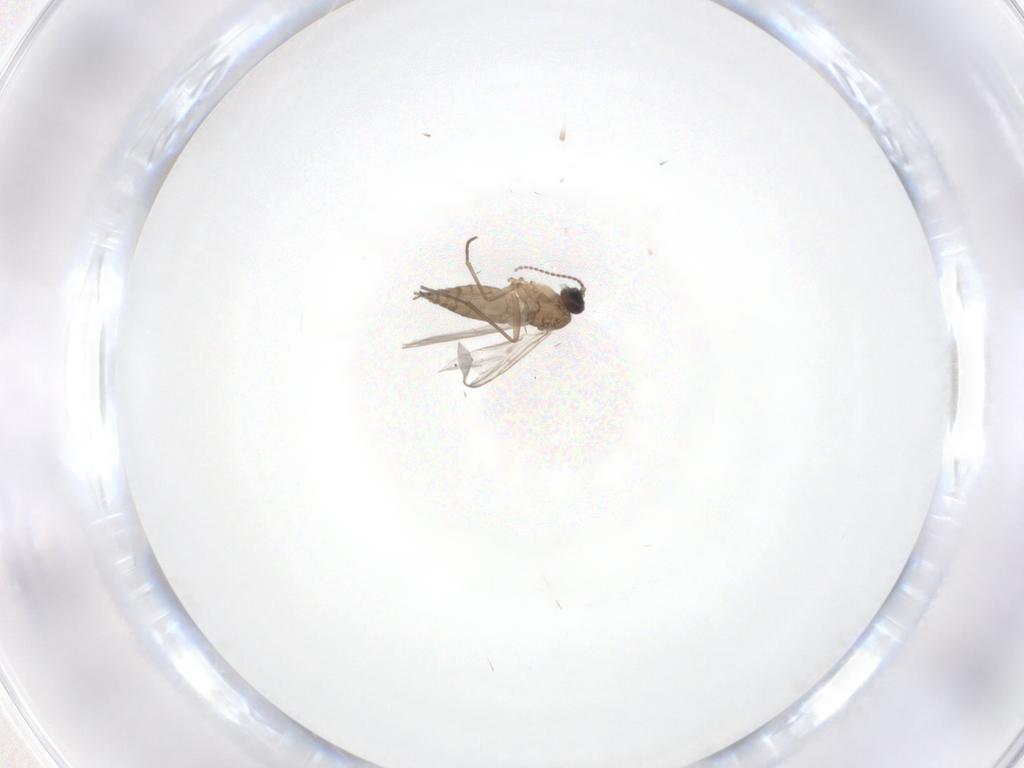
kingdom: Animalia
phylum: Arthropoda
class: Insecta
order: Diptera
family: Sciaridae
